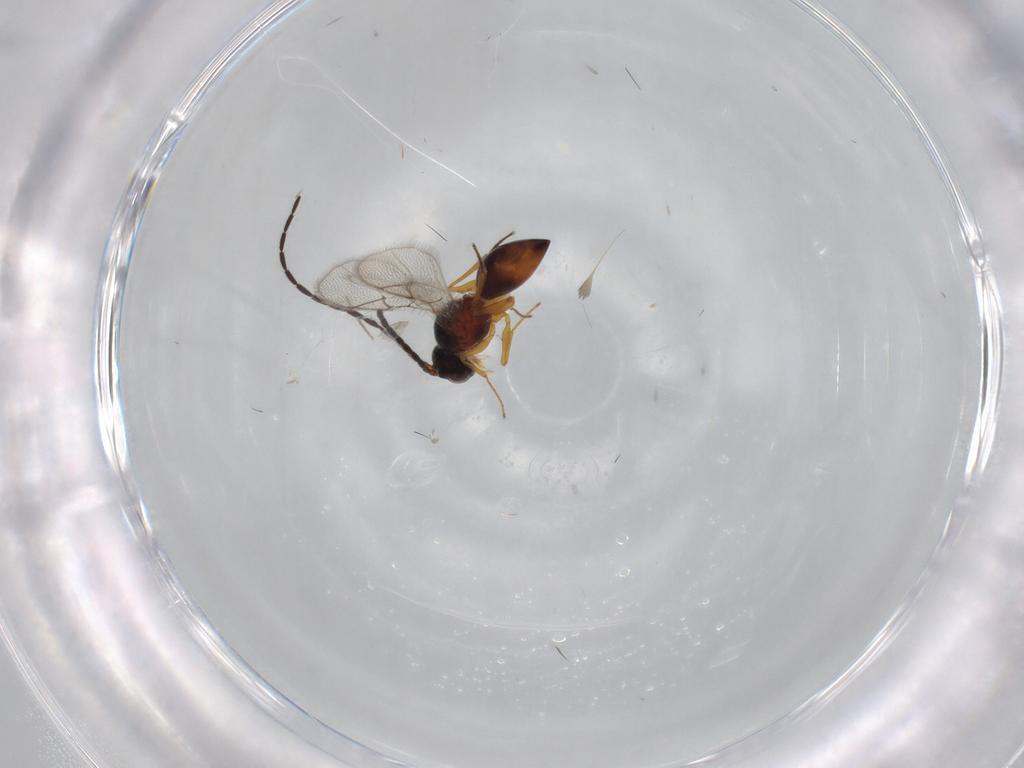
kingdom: Animalia
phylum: Arthropoda
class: Insecta
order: Hymenoptera
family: Figitidae
